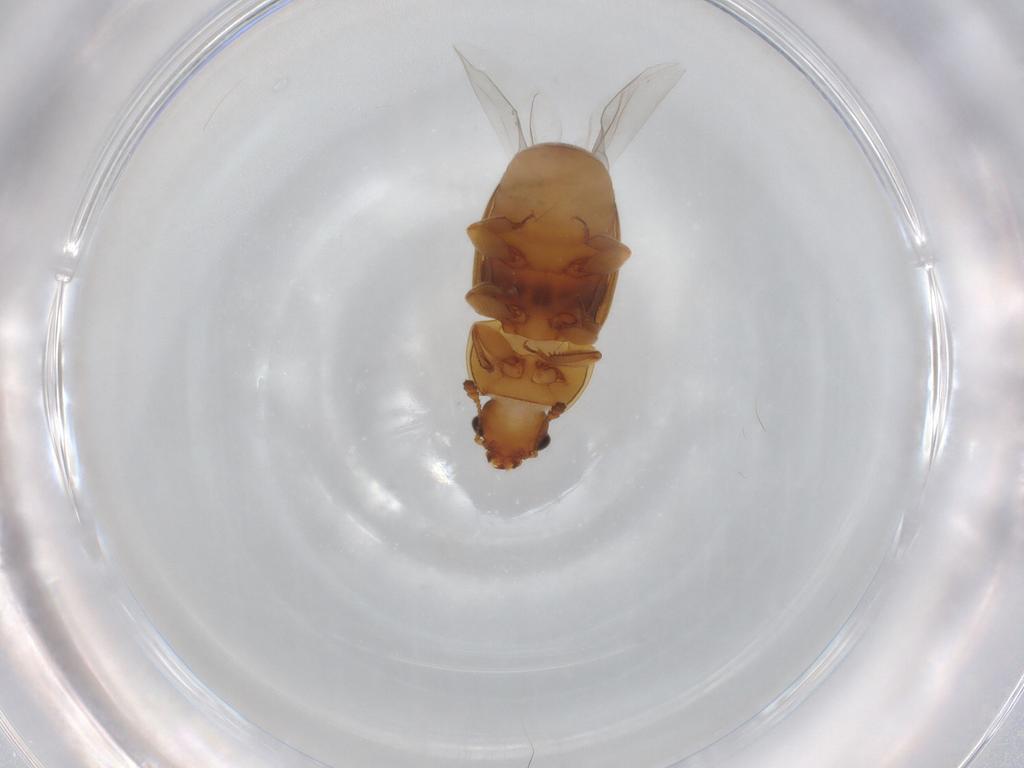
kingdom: Animalia
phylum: Arthropoda
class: Insecta
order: Coleoptera
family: Nitidulidae
